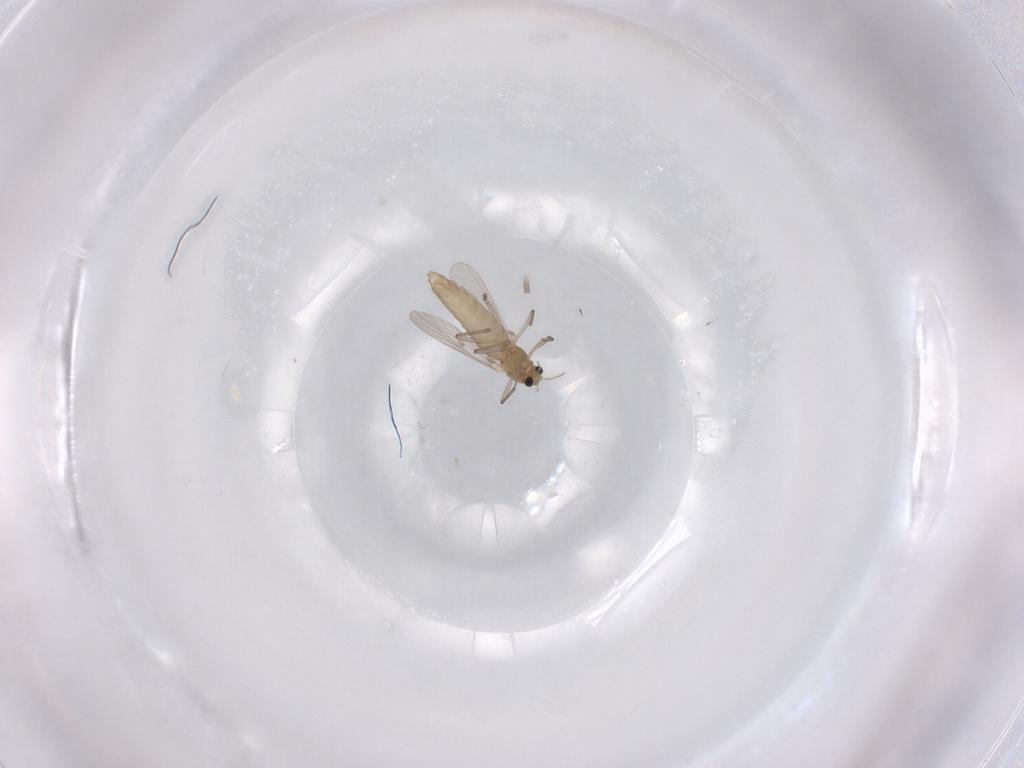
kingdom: Animalia
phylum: Arthropoda
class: Insecta
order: Diptera
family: Chironomidae
